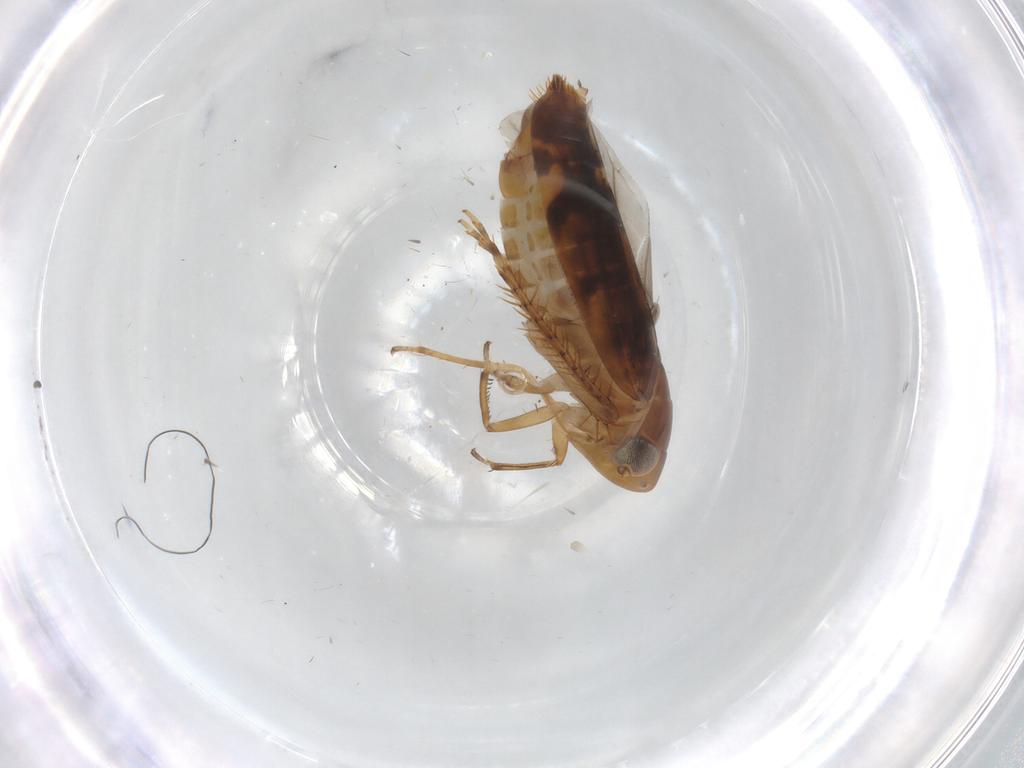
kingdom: Animalia
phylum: Arthropoda
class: Insecta
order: Hemiptera
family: Cicadellidae
